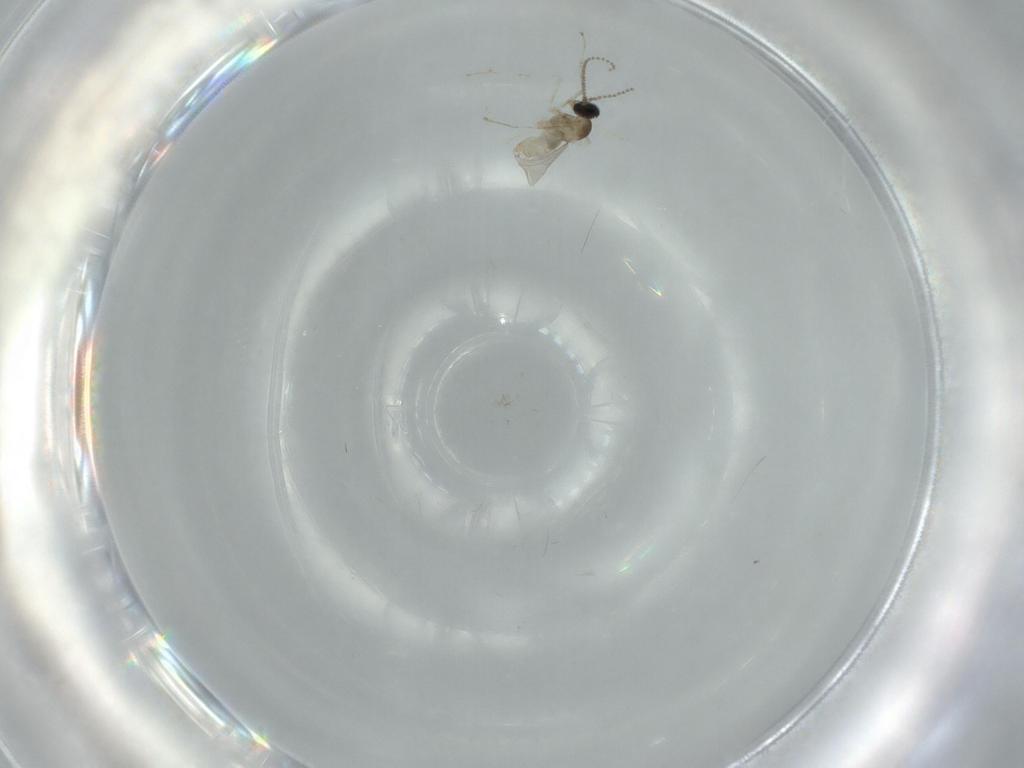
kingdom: Animalia
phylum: Arthropoda
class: Insecta
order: Diptera
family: Cecidomyiidae
